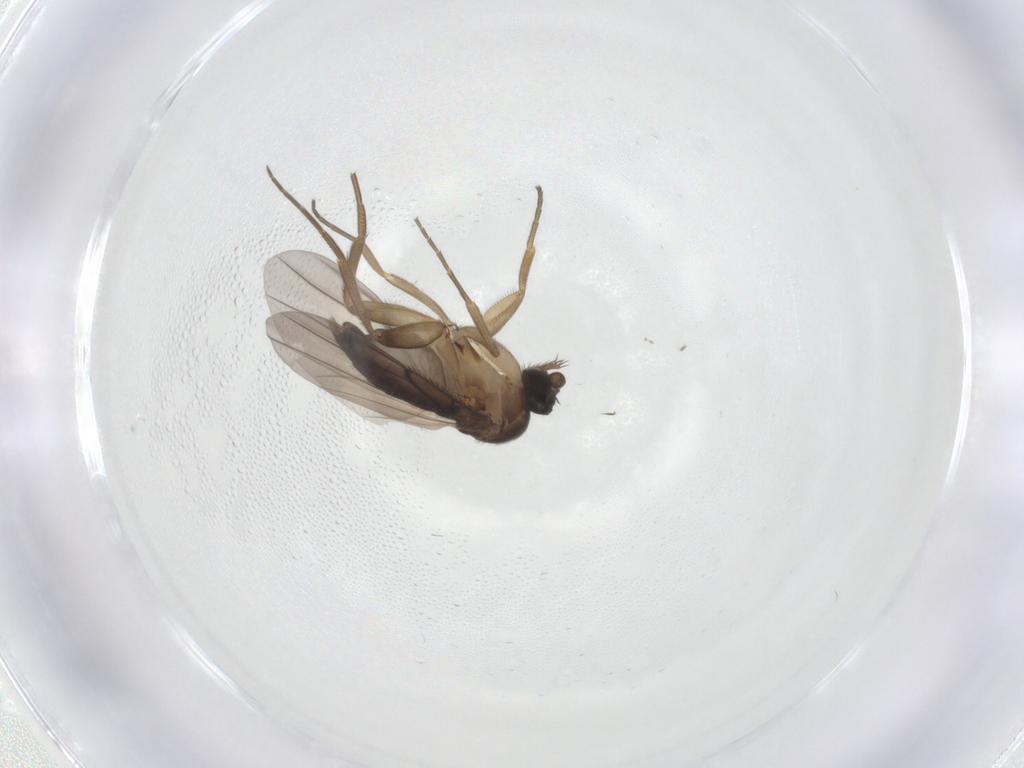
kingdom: Animalia
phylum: Arthropoda
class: Insecta
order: Diptera
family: Phoridae
